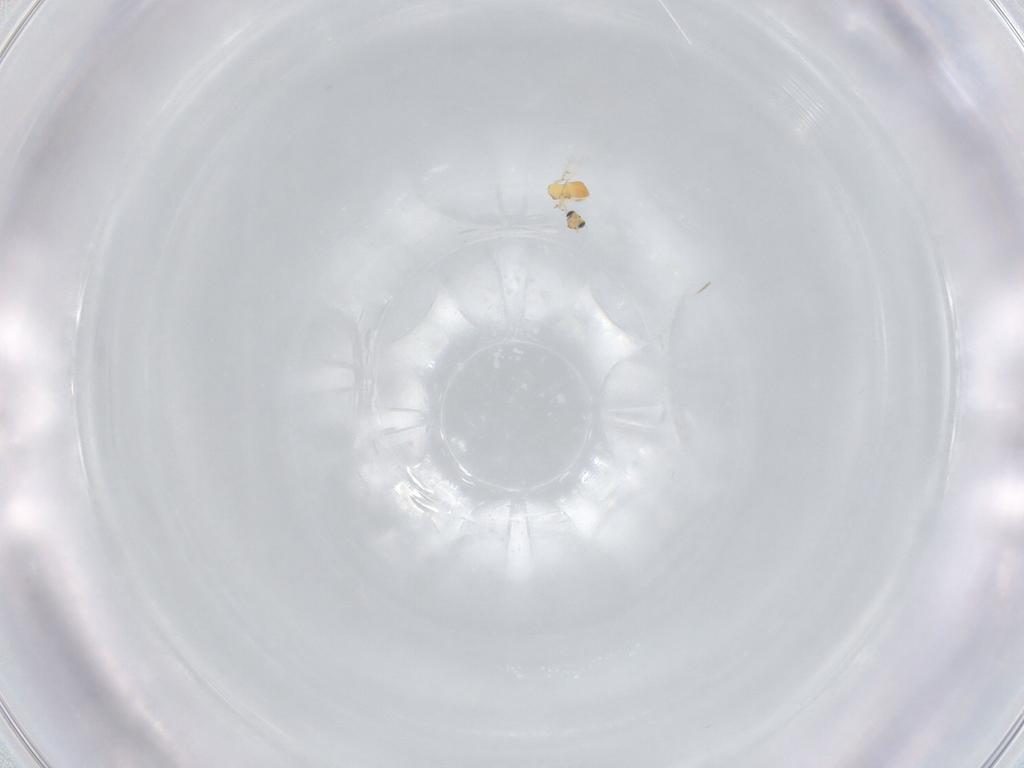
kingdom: Animalia
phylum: Arthropoda
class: Insecta
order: Hymenoptera
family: Trichogrammatidae
